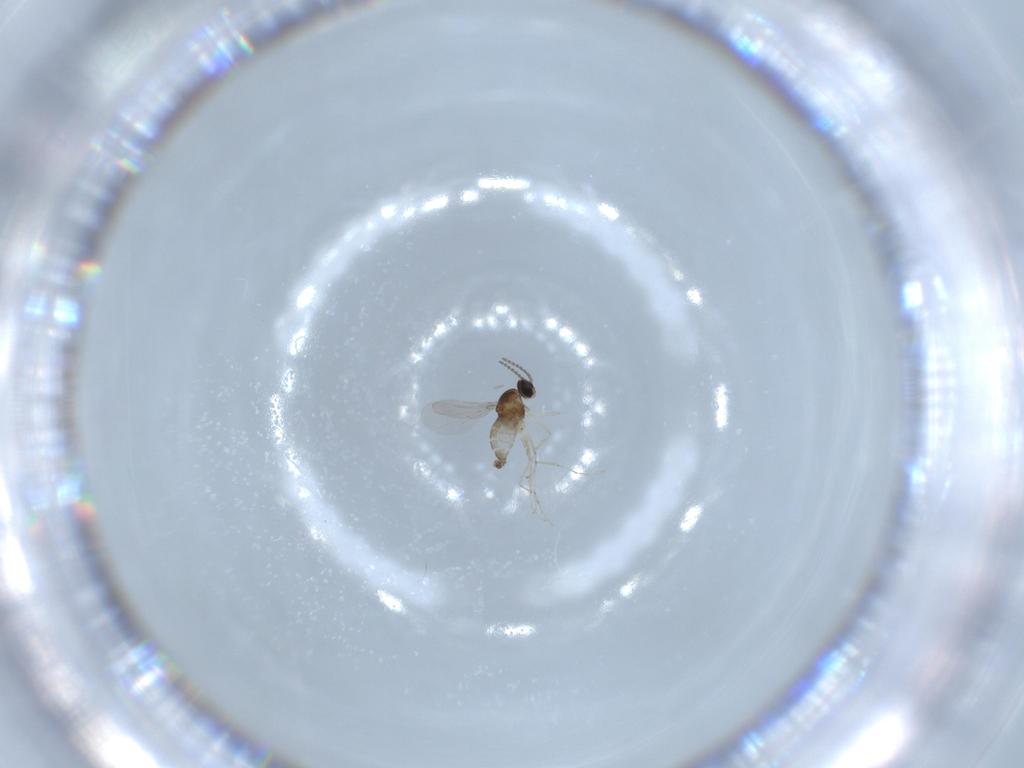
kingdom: Animalia
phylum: Arthropoda
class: Insecta
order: Diptera
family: Cecidomyiidae
